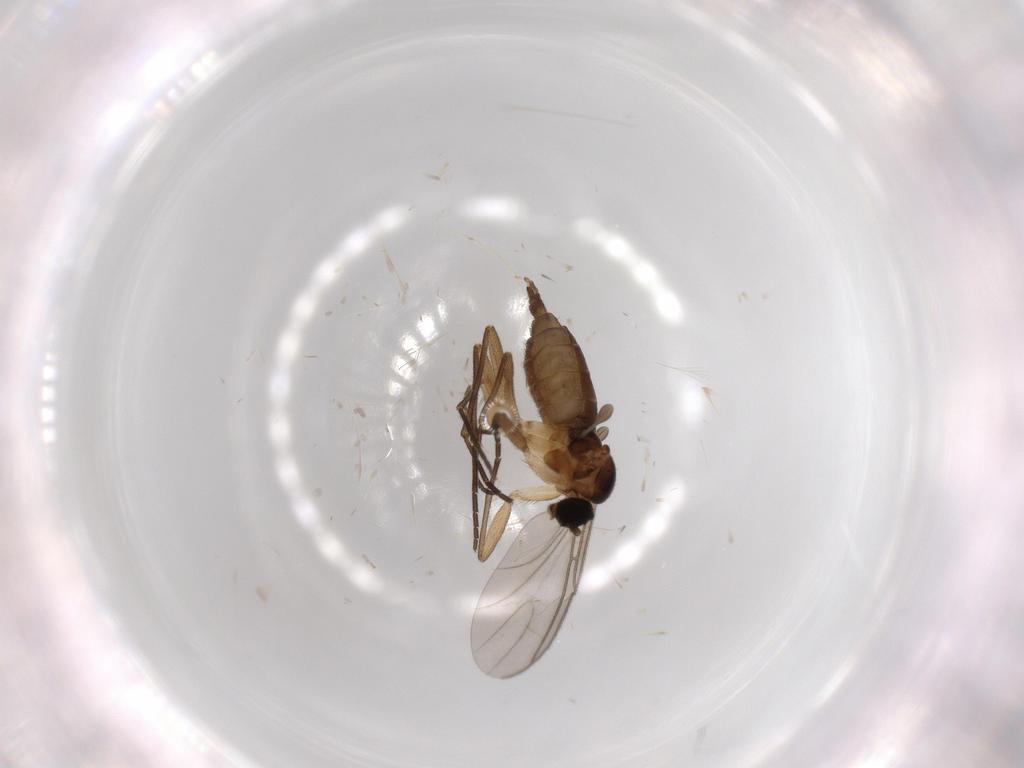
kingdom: Animalia
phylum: Arthropoda
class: Insecta
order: Diptera
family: Sciaridae
